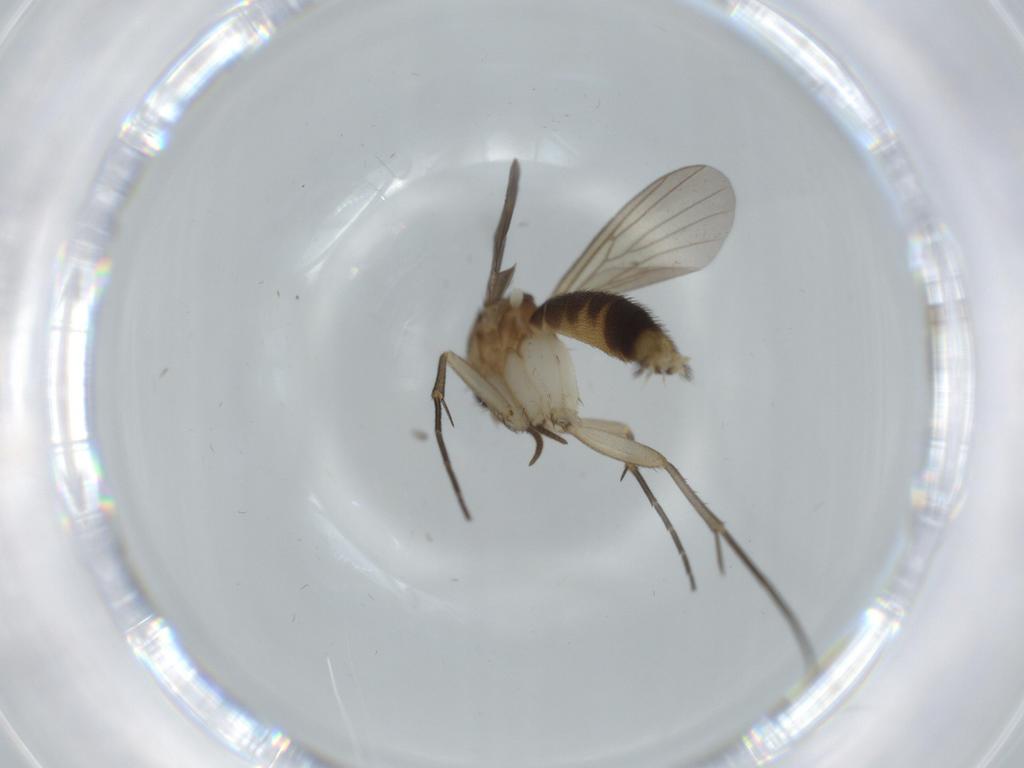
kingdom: Animalia
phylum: Arthropoda
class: Insecta
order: Diptera
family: Mycetophilidae
